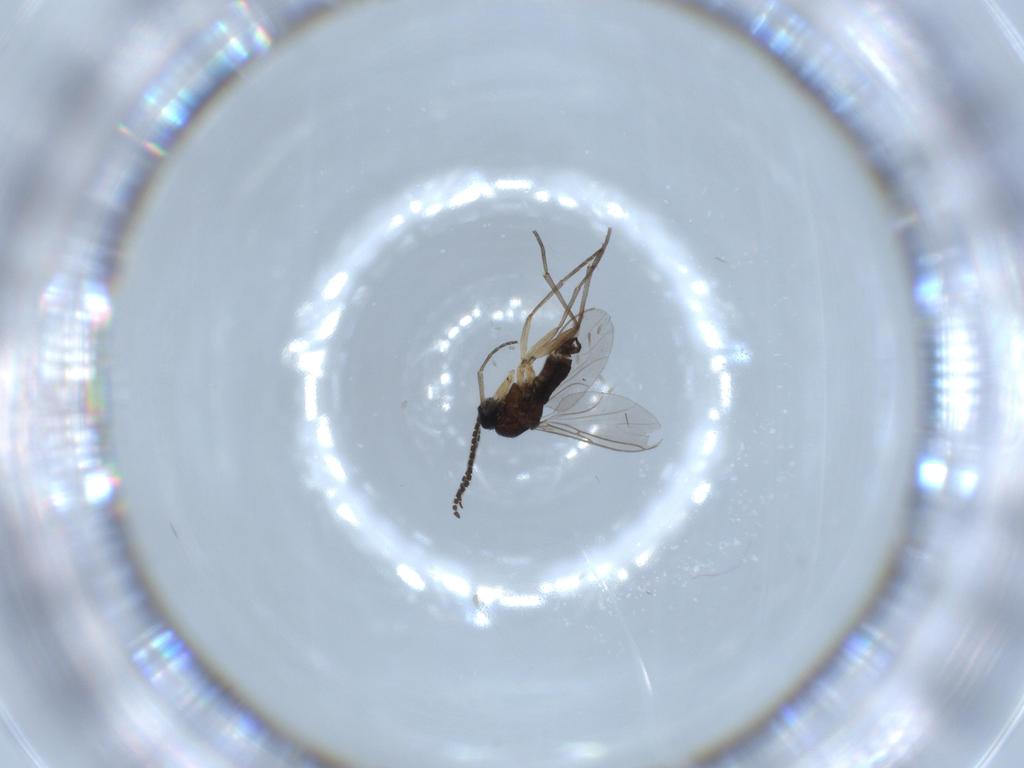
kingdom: Animalia
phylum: Arthropoda
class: Insecta
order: Diptera
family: Sciaridae
